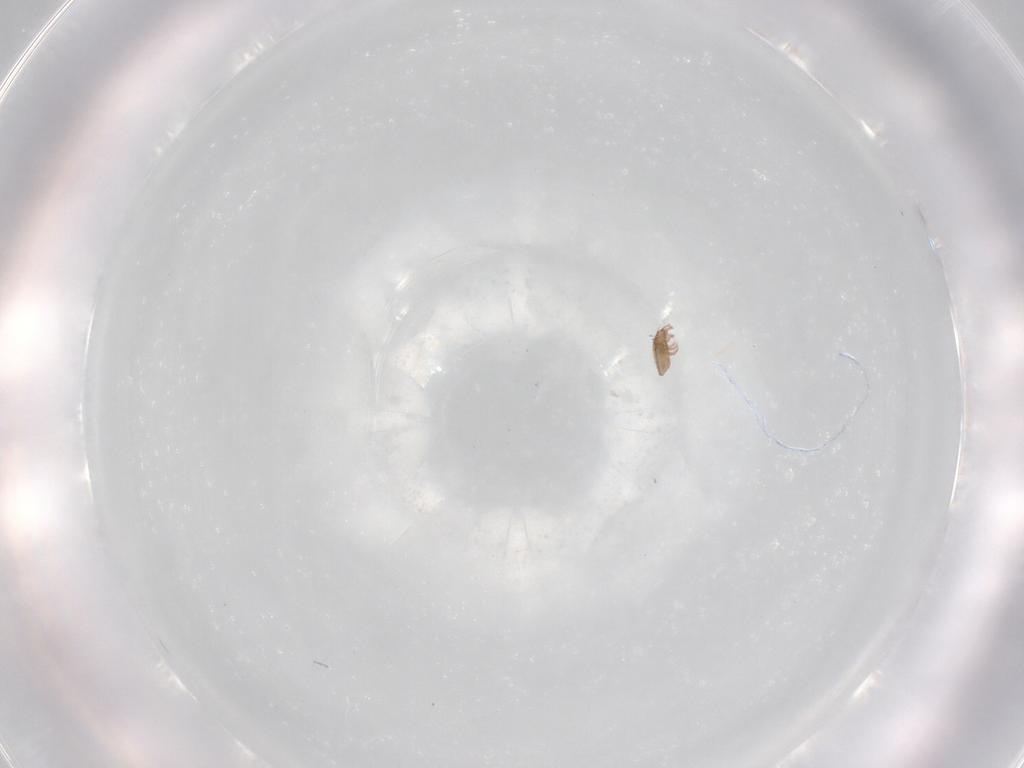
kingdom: Animalia
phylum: Arthropoda
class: Arachnida
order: Sarcoptiformes
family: Phenopelopidae
